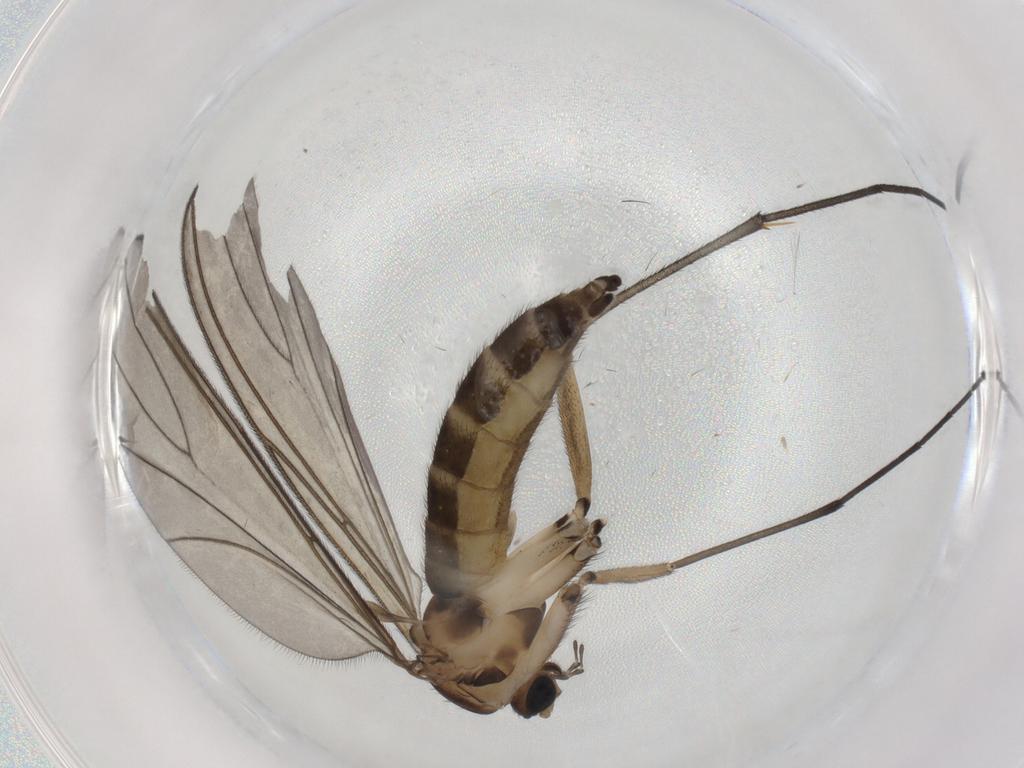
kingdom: Animalia
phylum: Arthropoda
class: Insecta
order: Diptera
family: Sciaridae
